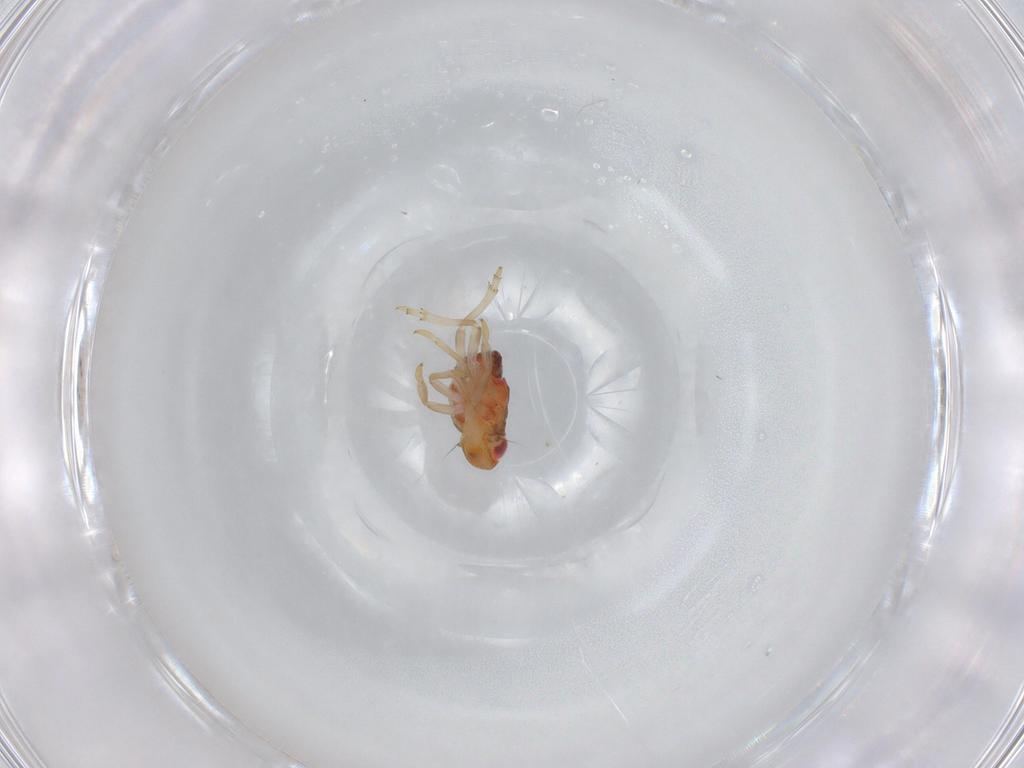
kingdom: Animalia
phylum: Arthropoda
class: Insecta
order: Hemiptera
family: Issidae
